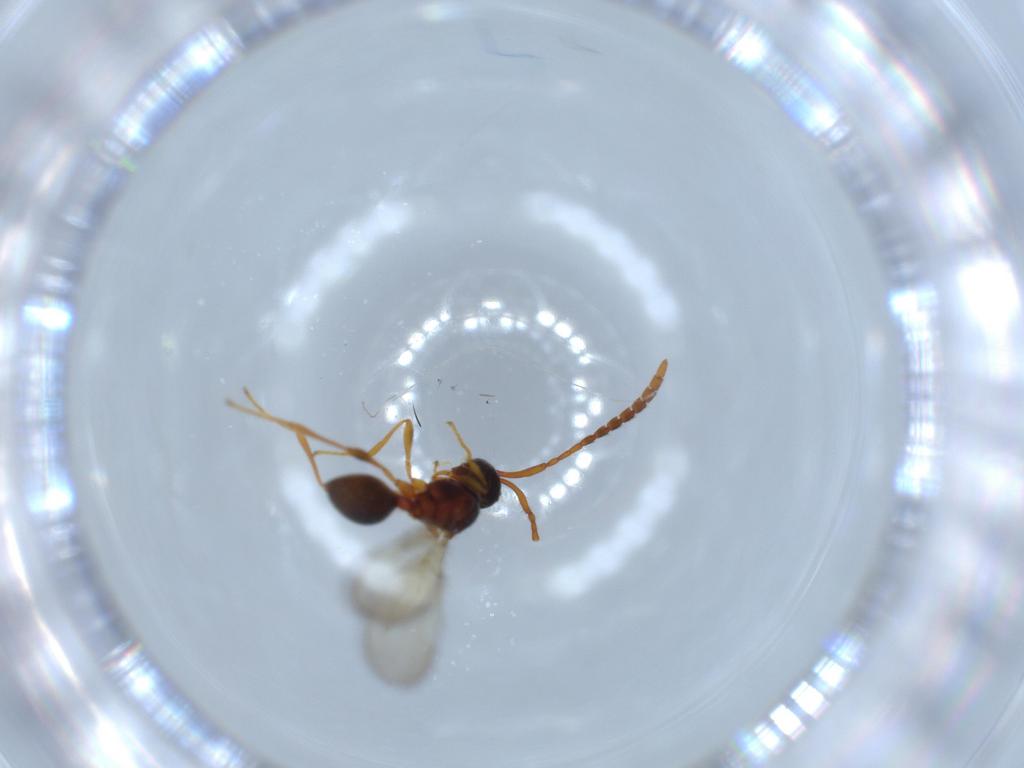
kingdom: Animalia
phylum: Arthropoda
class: Insecta
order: Hymenoptera
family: Diapriidae
